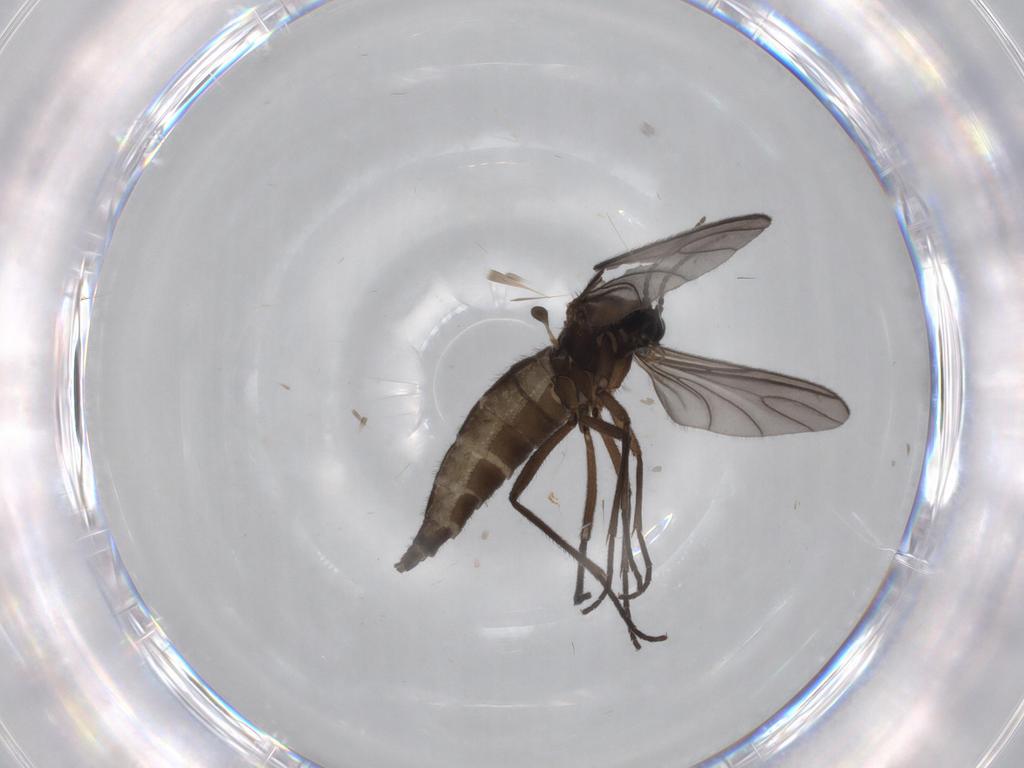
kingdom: Animalia
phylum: Arthropoda
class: Insecta
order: Diptera
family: Sciaridae
